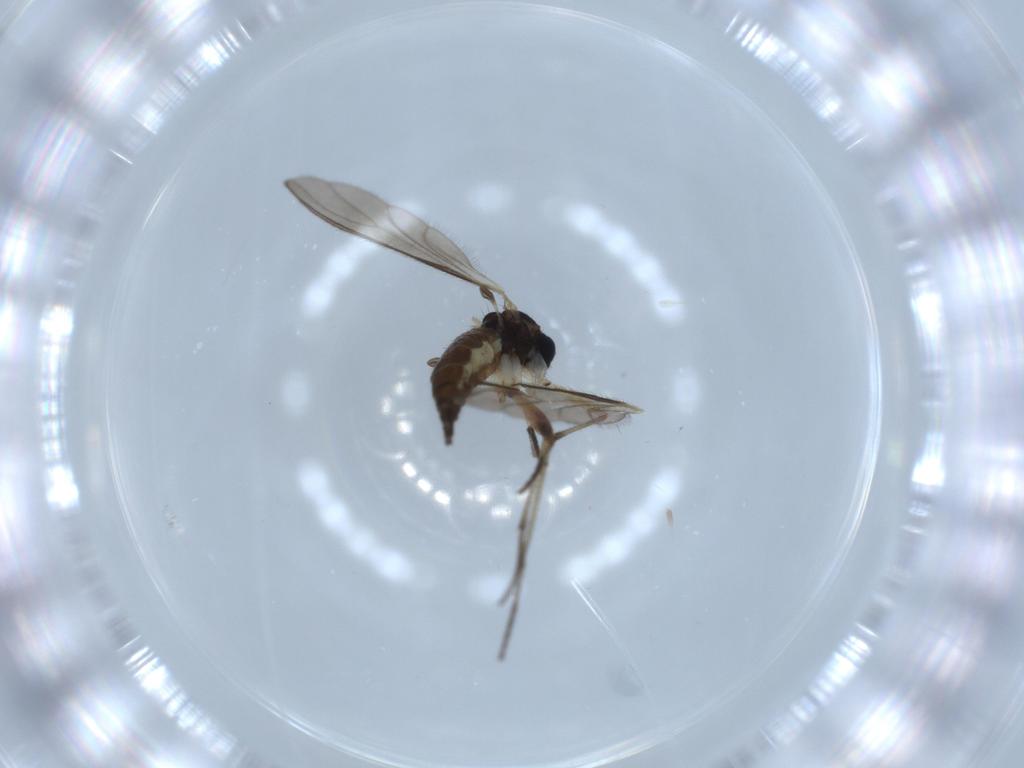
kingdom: Animalia
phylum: Arthropoda
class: Insecta
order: Diptera
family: Sciaridae
